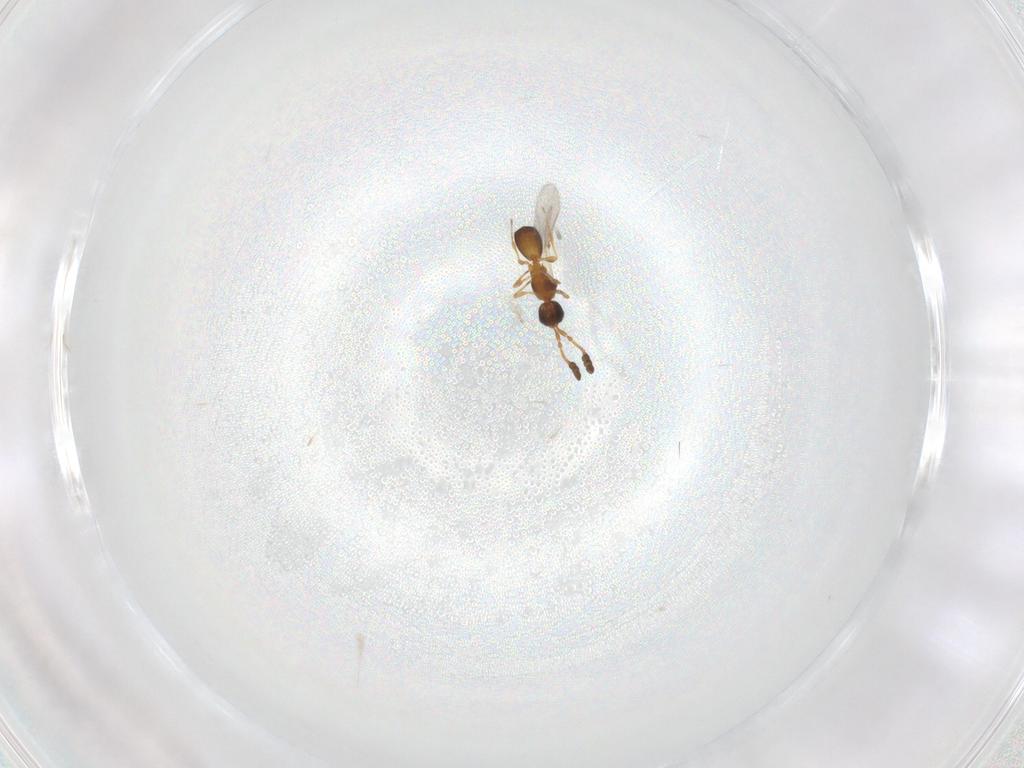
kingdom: Animalia
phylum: Arthropoda
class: Insecta
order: Hymenoptera
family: Diapriidae
